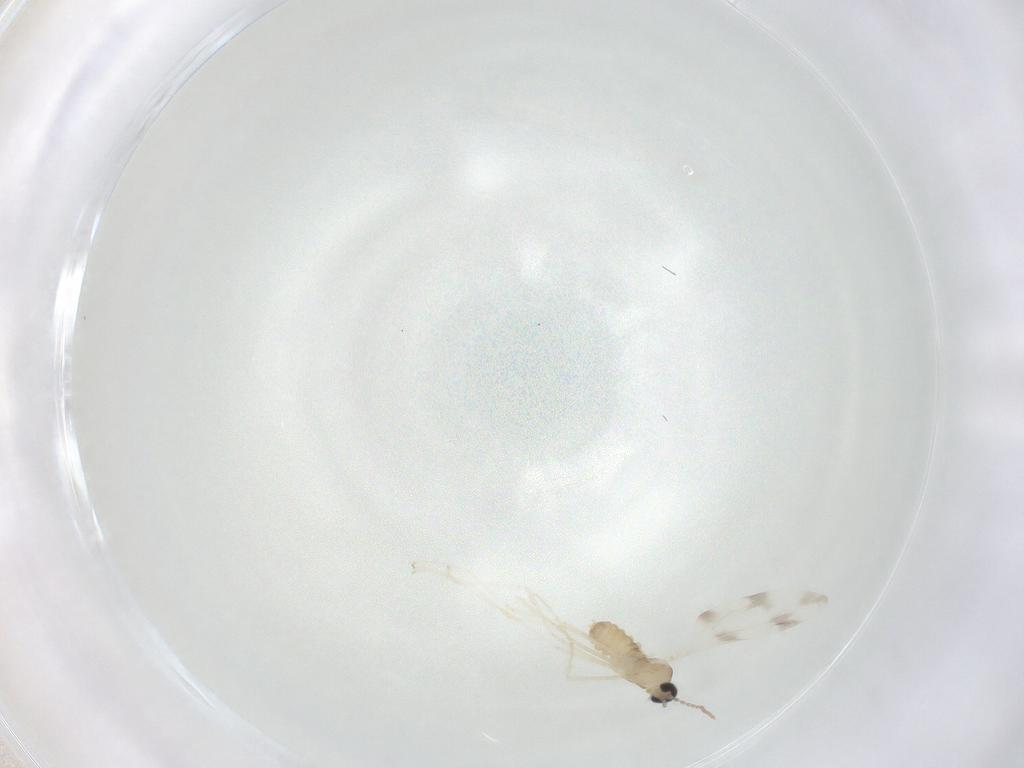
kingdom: Animalia
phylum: Arthropoda
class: Insecta
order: Diptera
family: Cecidomyiidae
